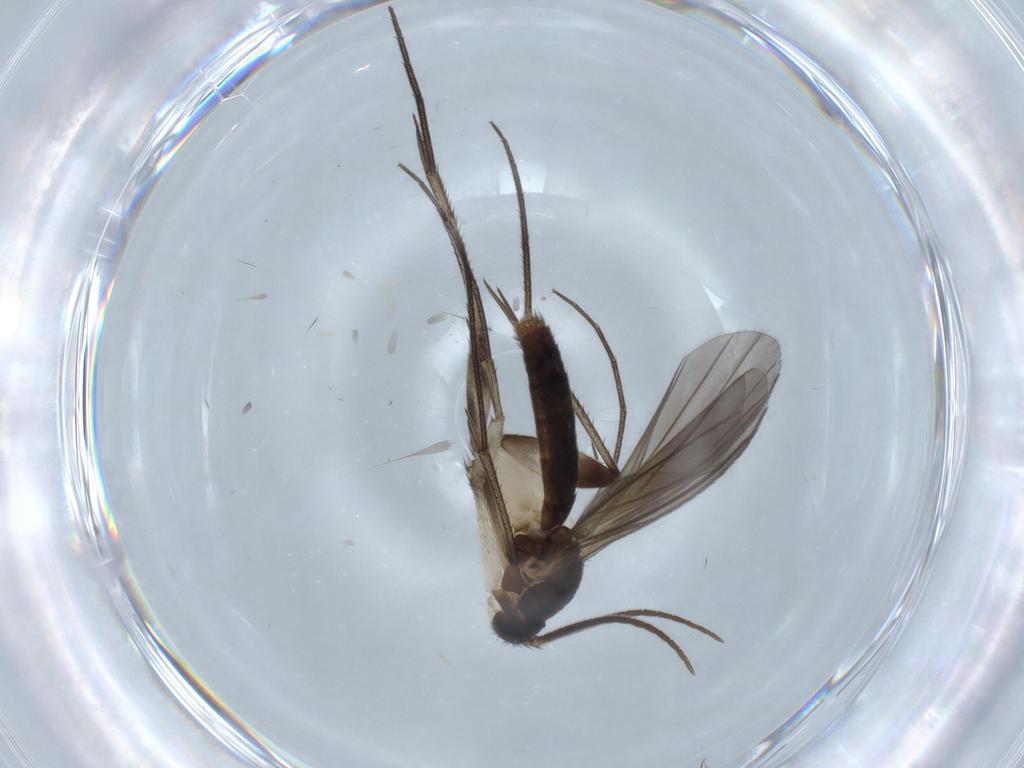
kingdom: Animalia
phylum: Arthropoda
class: Insecta
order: Diptera
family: Mycetophilidae
